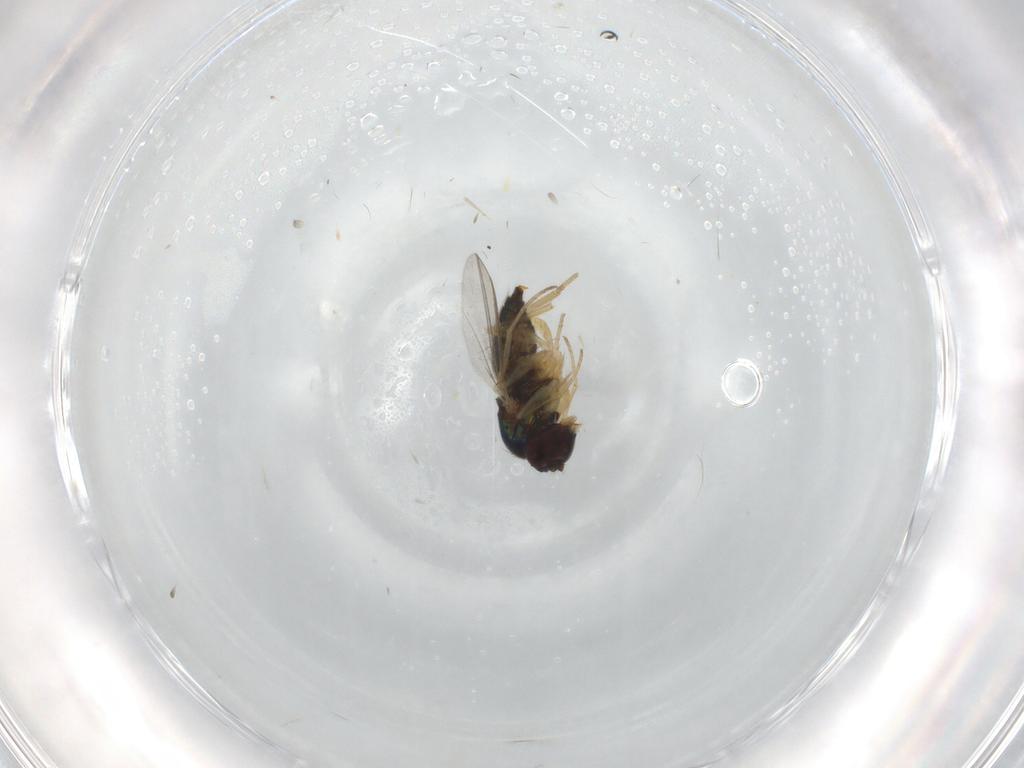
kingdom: Animalia
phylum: Arthropoda
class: Insecta
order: Diptera
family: Dolichopodidae
